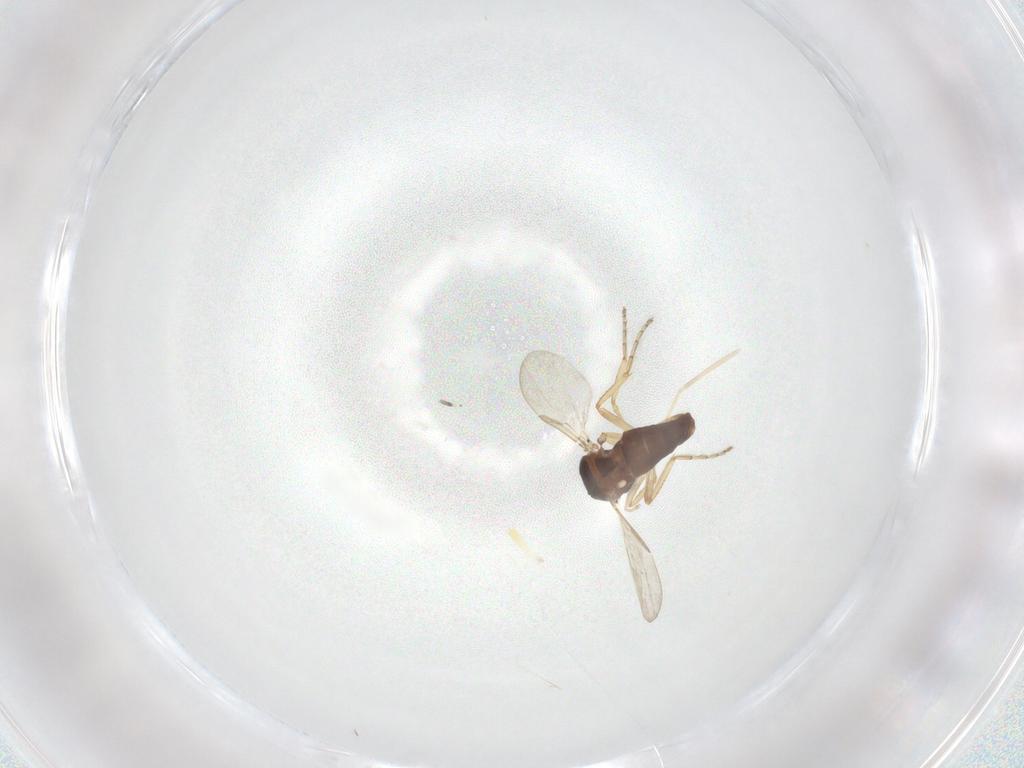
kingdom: Animalia
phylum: Arthropoda
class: Insecta
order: Diptera
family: Ceratopogonidae
